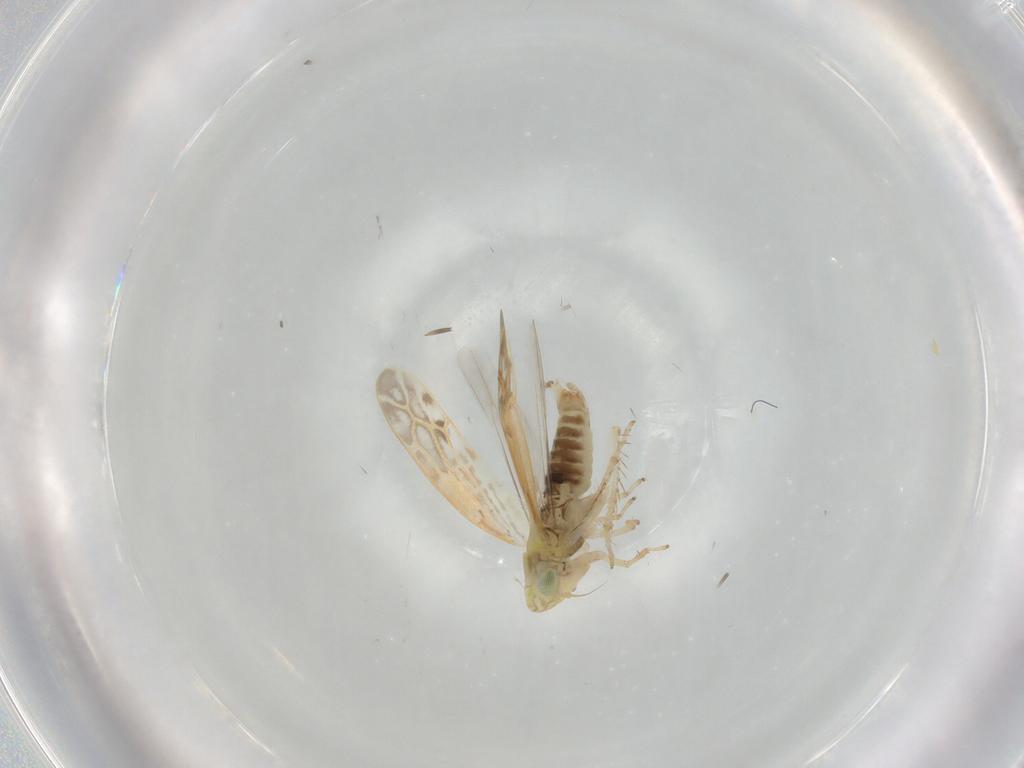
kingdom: Animalia
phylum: Arthropoda
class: Insecta
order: Hemiptera
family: Cicadellidae
